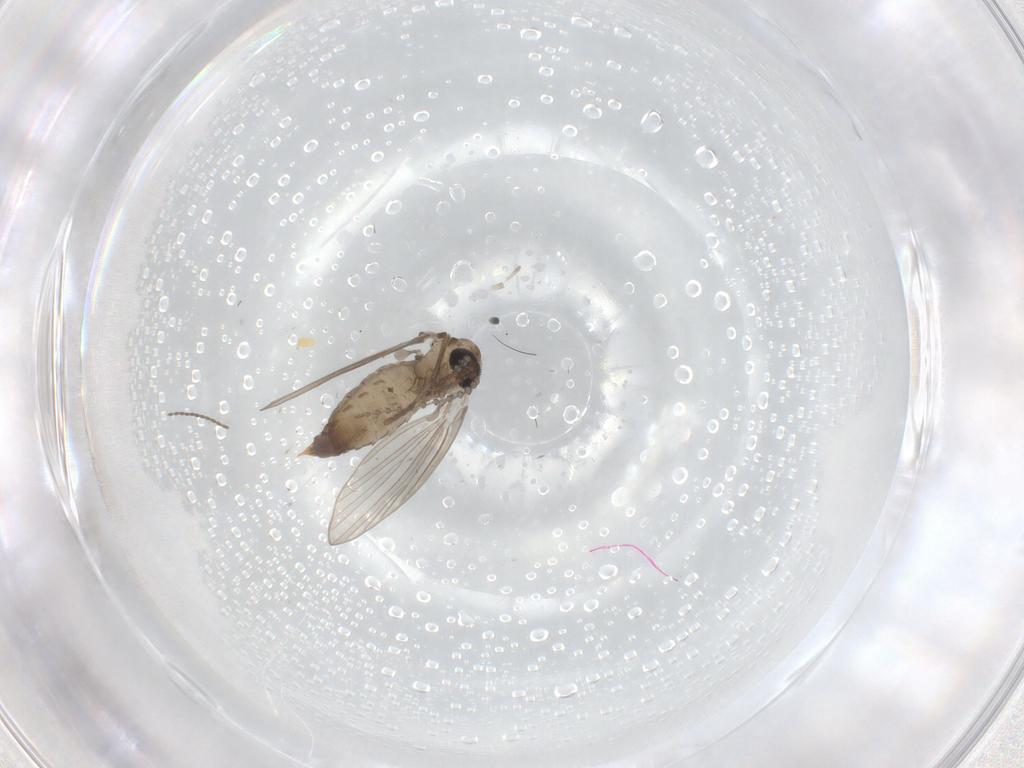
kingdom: Animalia
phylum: Arthropoda
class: Insecta
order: Diptera
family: Psychodidae
